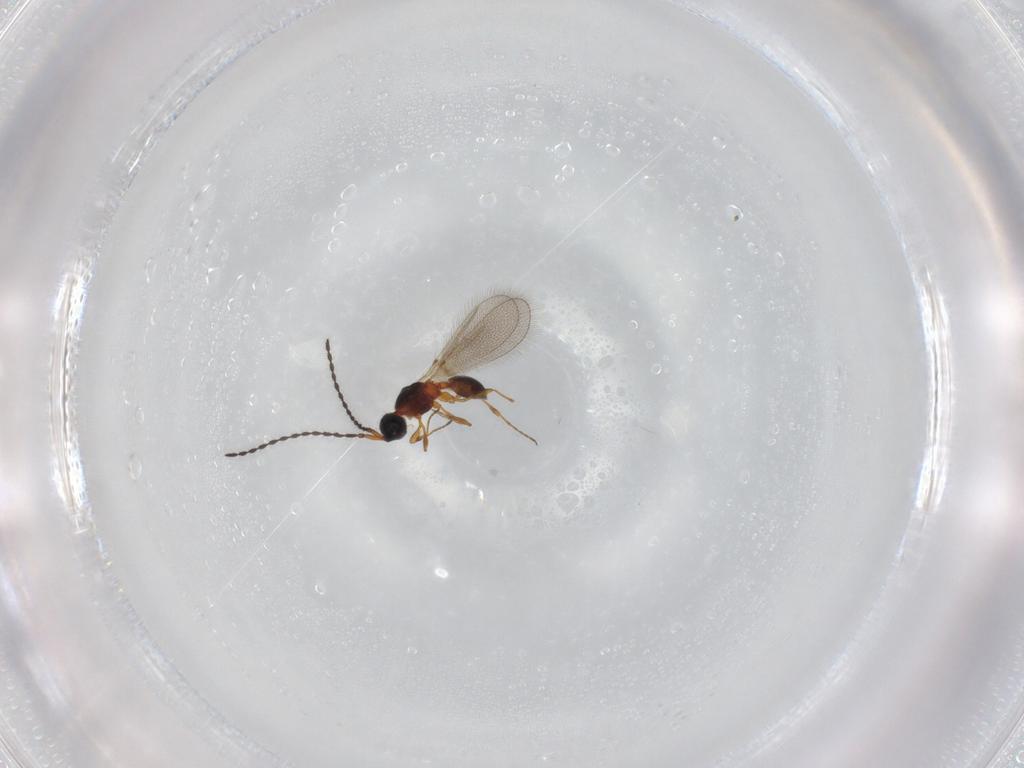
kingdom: Animalia
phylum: Arthropoda
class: Insecta
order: Hymenoptera
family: Diapriidae
